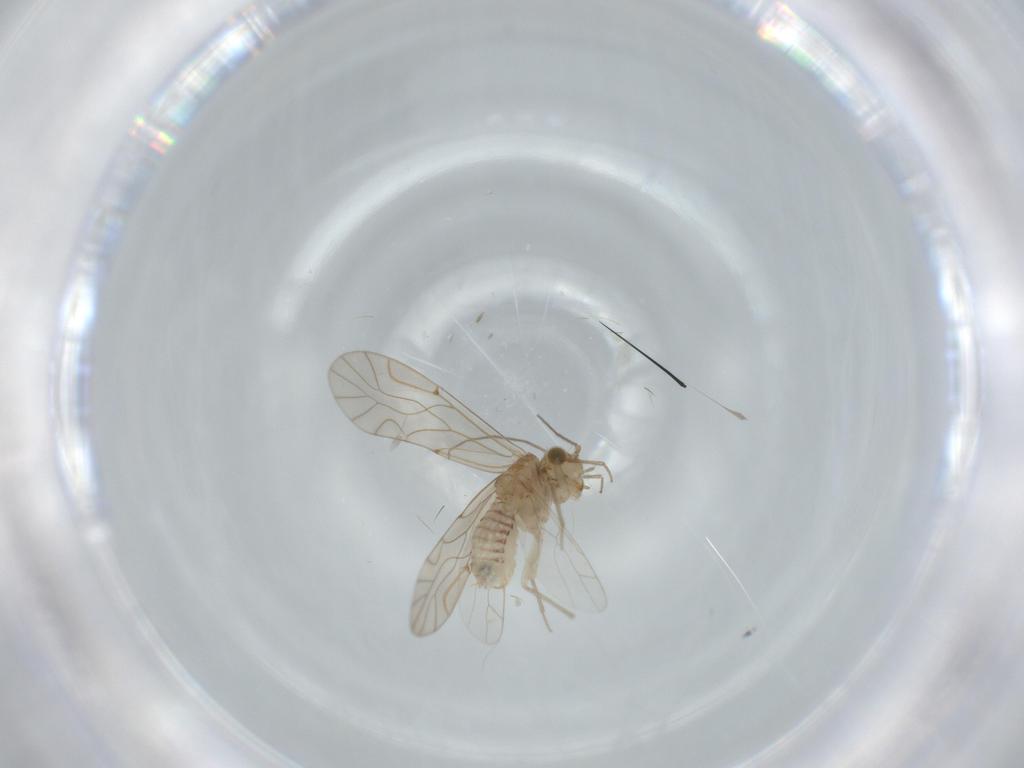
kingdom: Animalia
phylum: Arthropoda
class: Insecta
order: Psocodea
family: Lachesillidae
